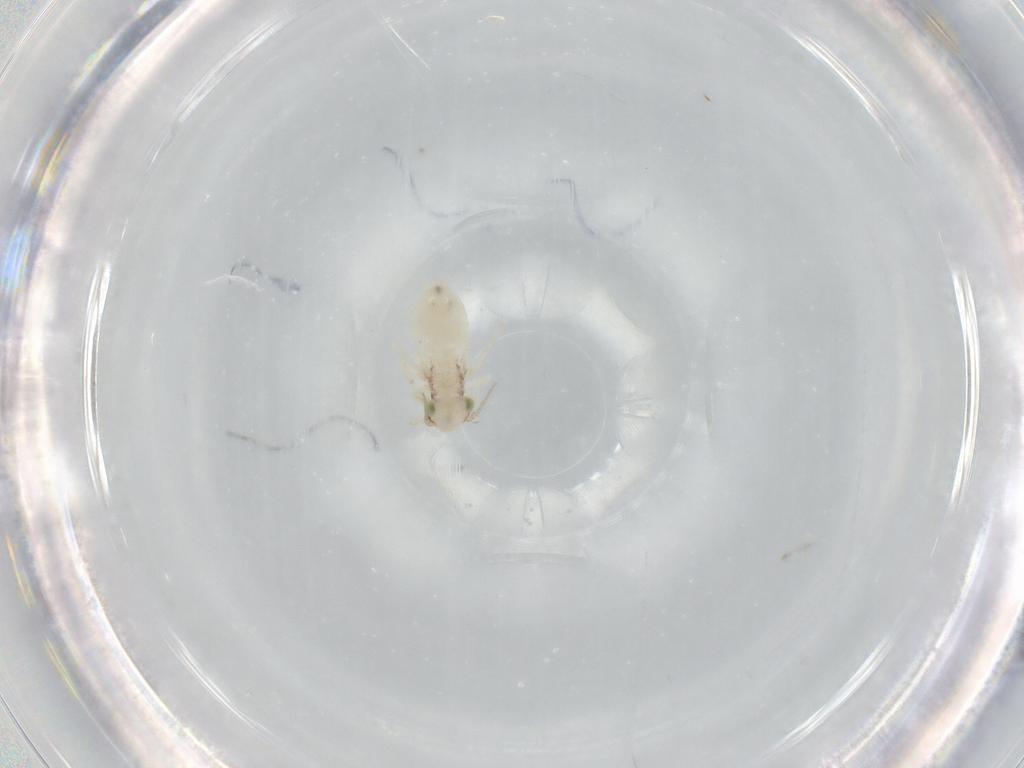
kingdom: Animalia
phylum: Arthropoda
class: Insecta
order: Psocodea
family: Lepidopsocidae
